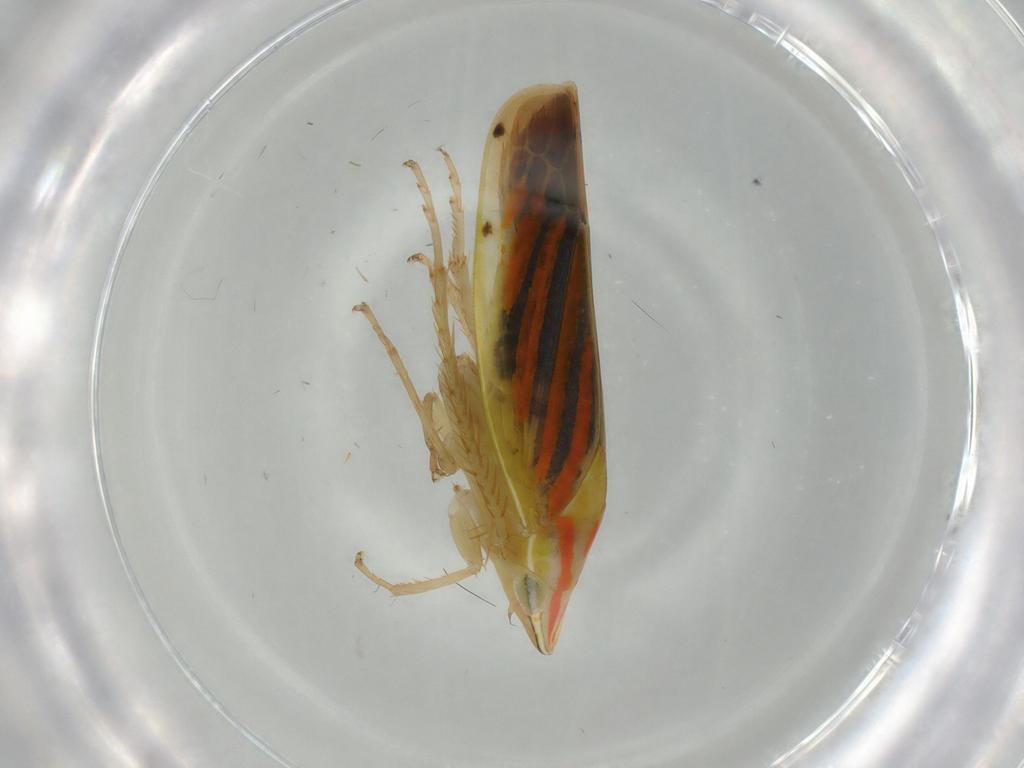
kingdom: Animalia
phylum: Arthropoda
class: Insecta
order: Hemiptera
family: Cicadellidae
